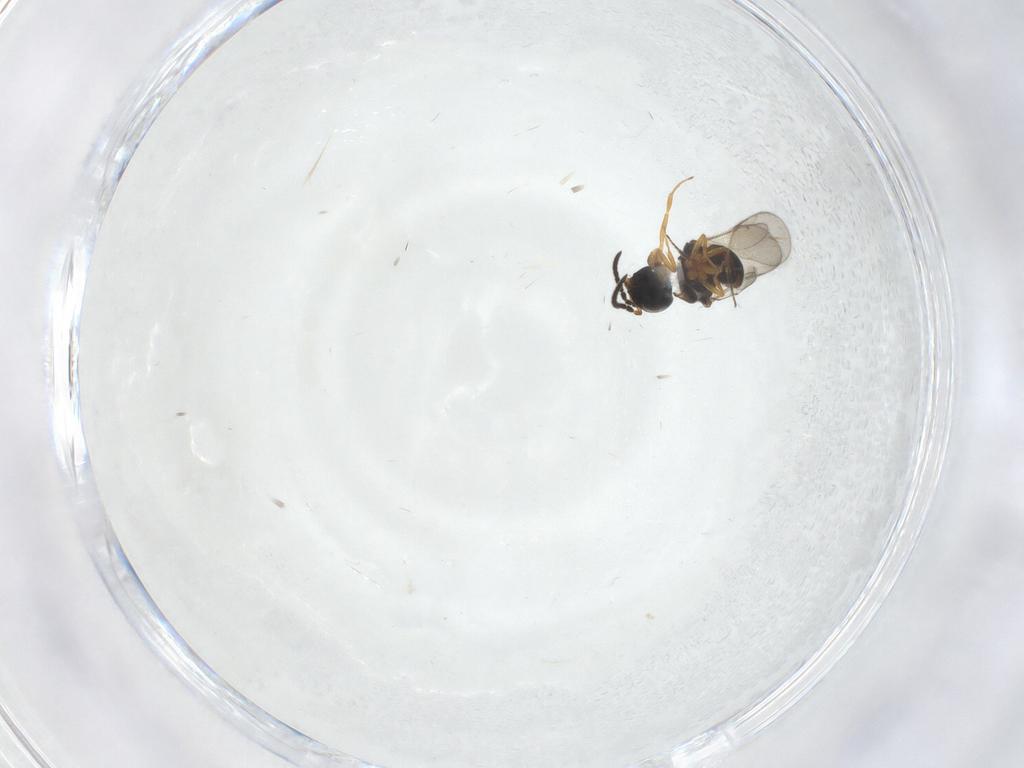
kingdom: Animalia
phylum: Arthropoda
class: Insecta
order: Hymenoptera
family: Scelionidae
